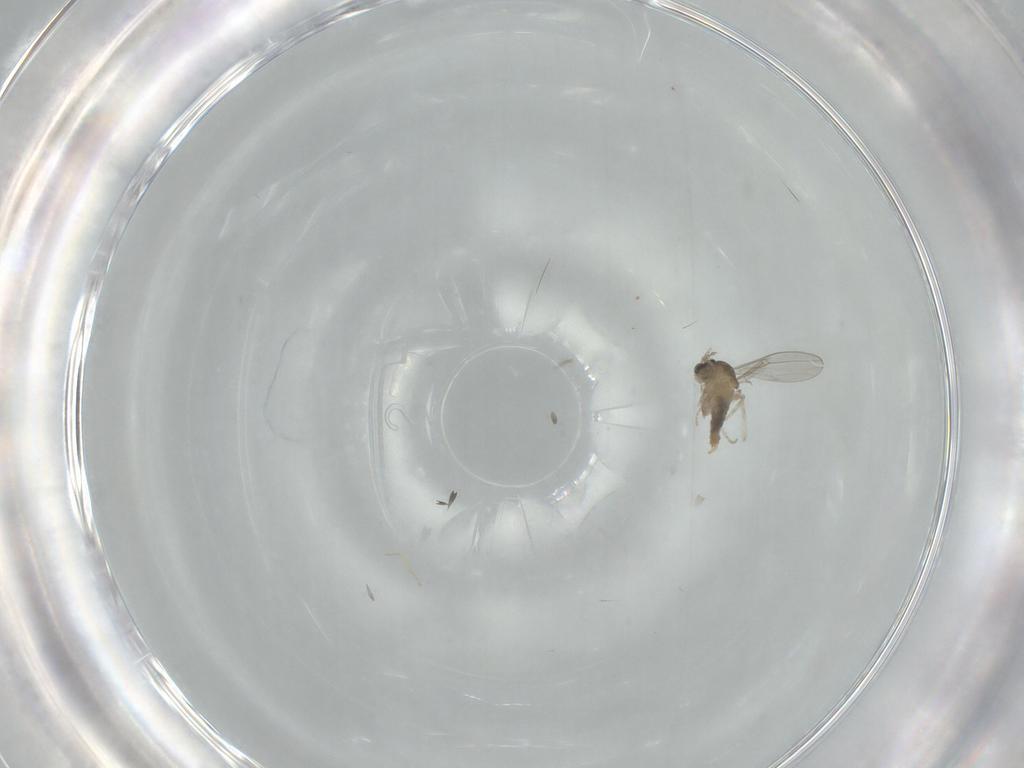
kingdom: Animalia
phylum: Arthropoda
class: Insecta
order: Diptera
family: Cecidomyiidae
